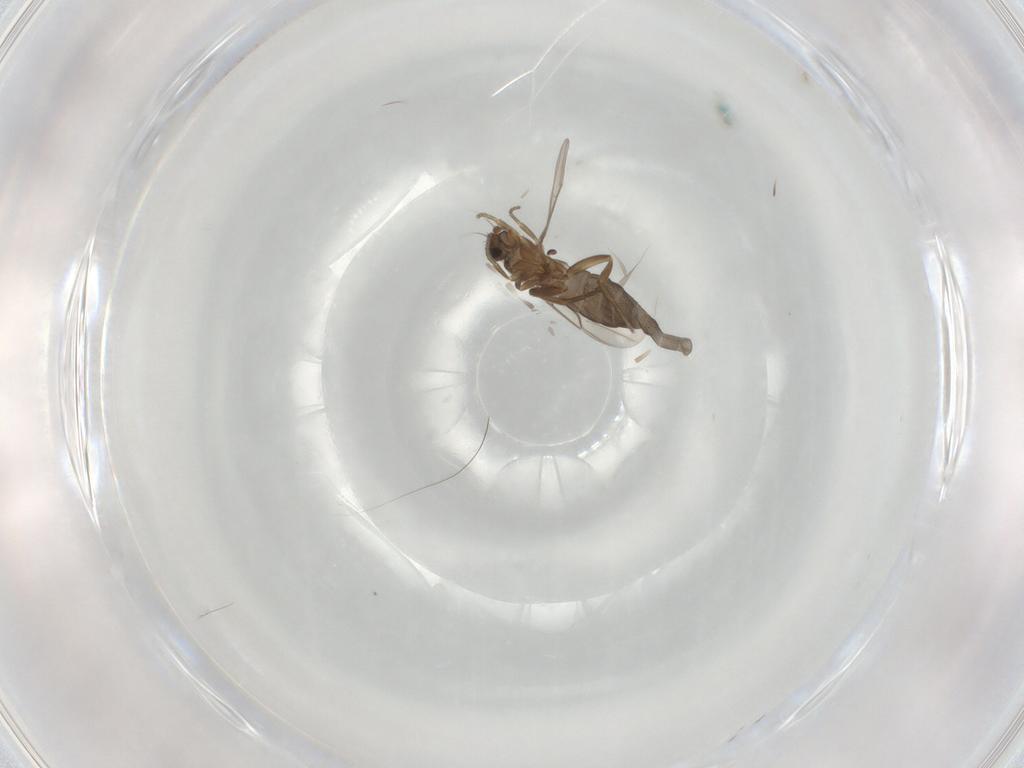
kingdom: Animalia
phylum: Arthropoda
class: Insecta
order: Diptera
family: Phoridae
